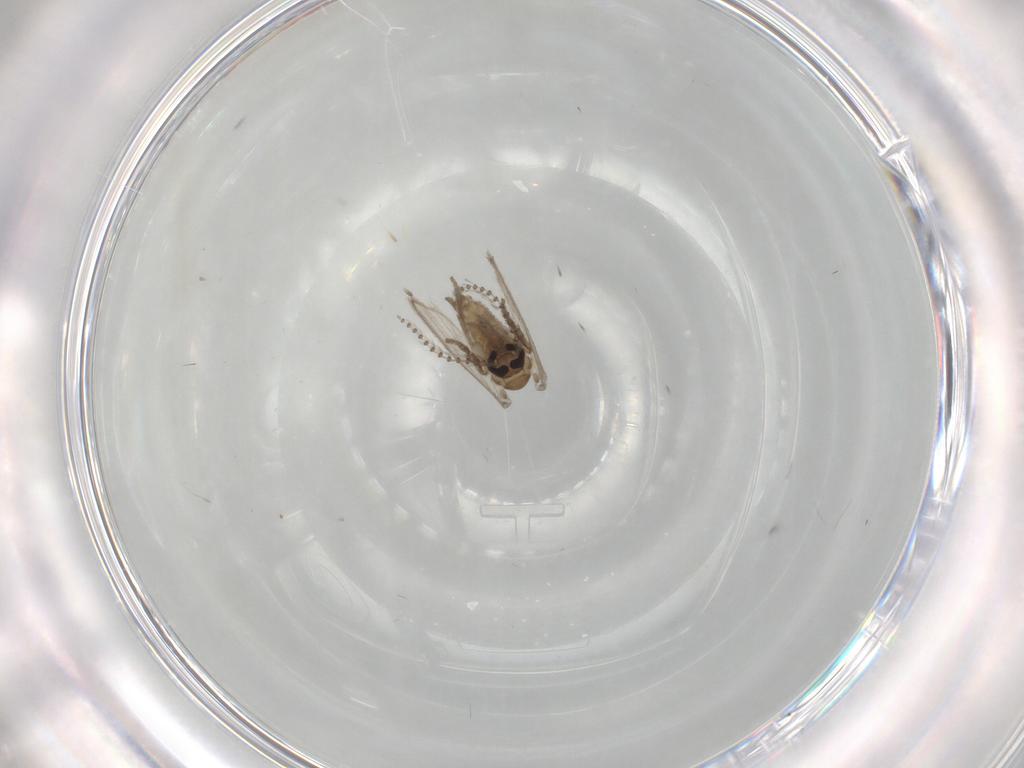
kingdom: Animalia
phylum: Arthropoda
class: Insecta
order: Diptera
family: Psychodidae
